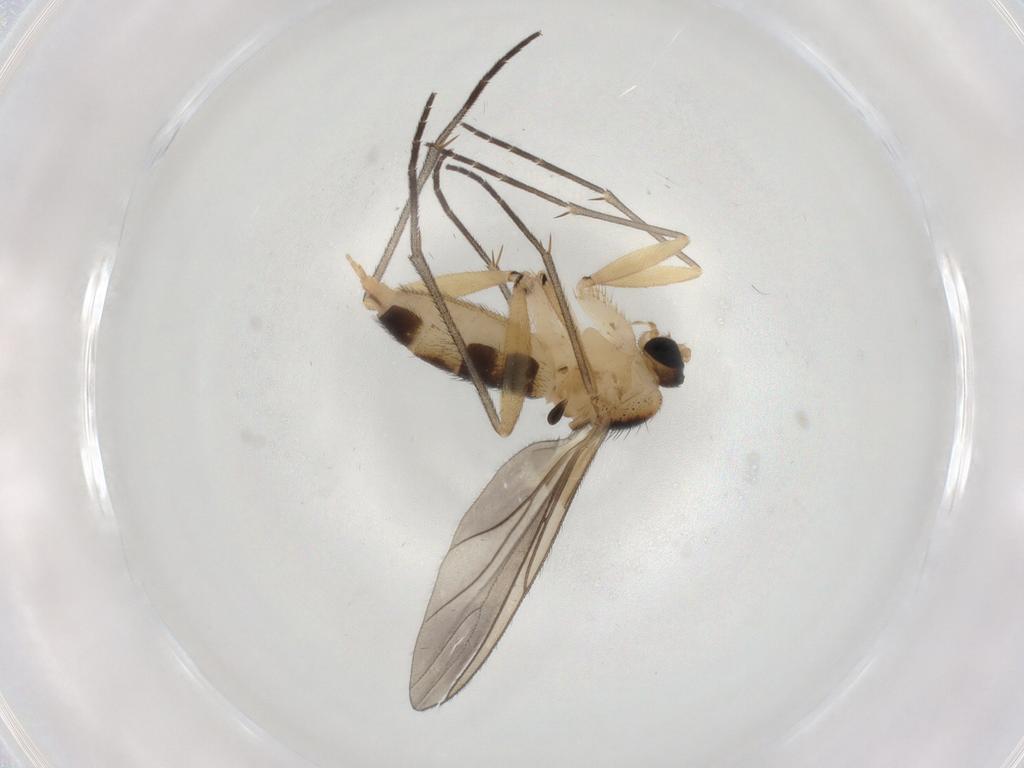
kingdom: Animalia
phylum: Arthropoda
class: Insecta
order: Diptera
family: Sciaridae
